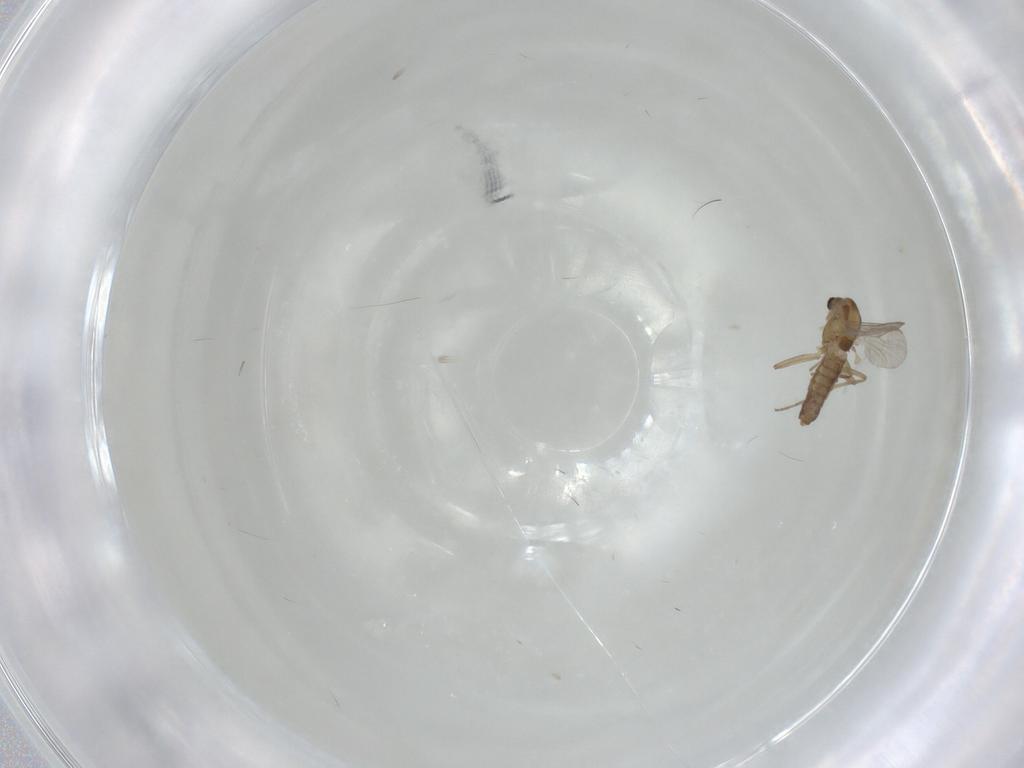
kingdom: Animalia
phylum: Arthropoda
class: Insecta
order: Diptera
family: Chironomidae
